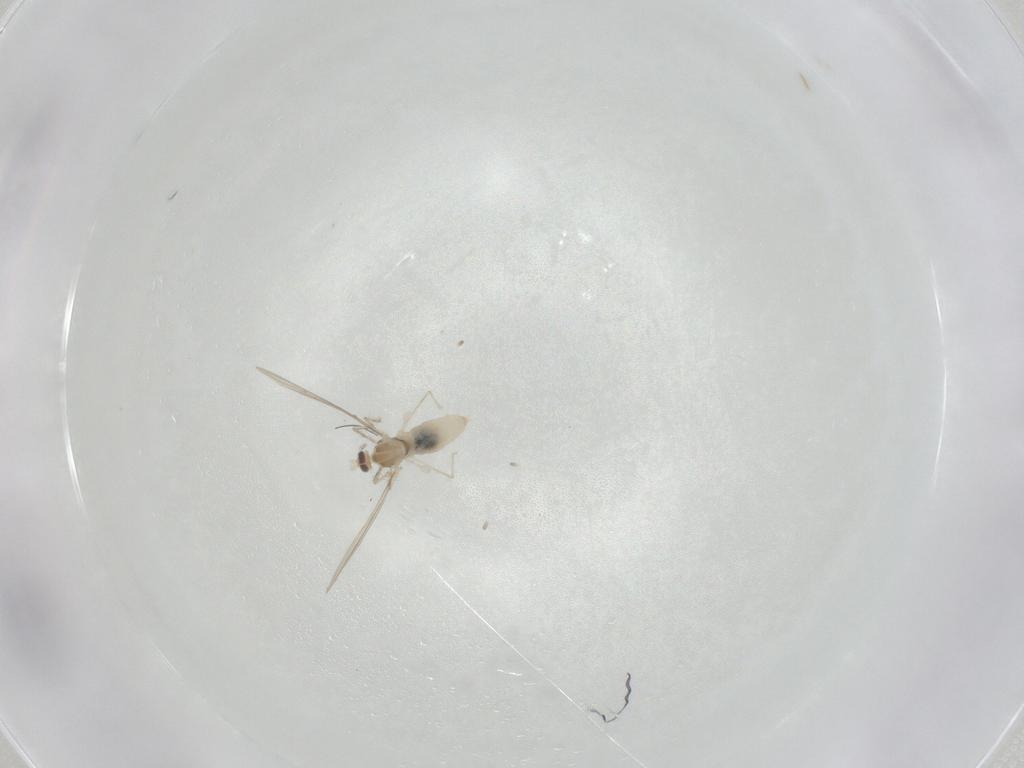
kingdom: Animalia
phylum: Arthropoda
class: Insecta
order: Diptera
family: Cecidomyiidae
